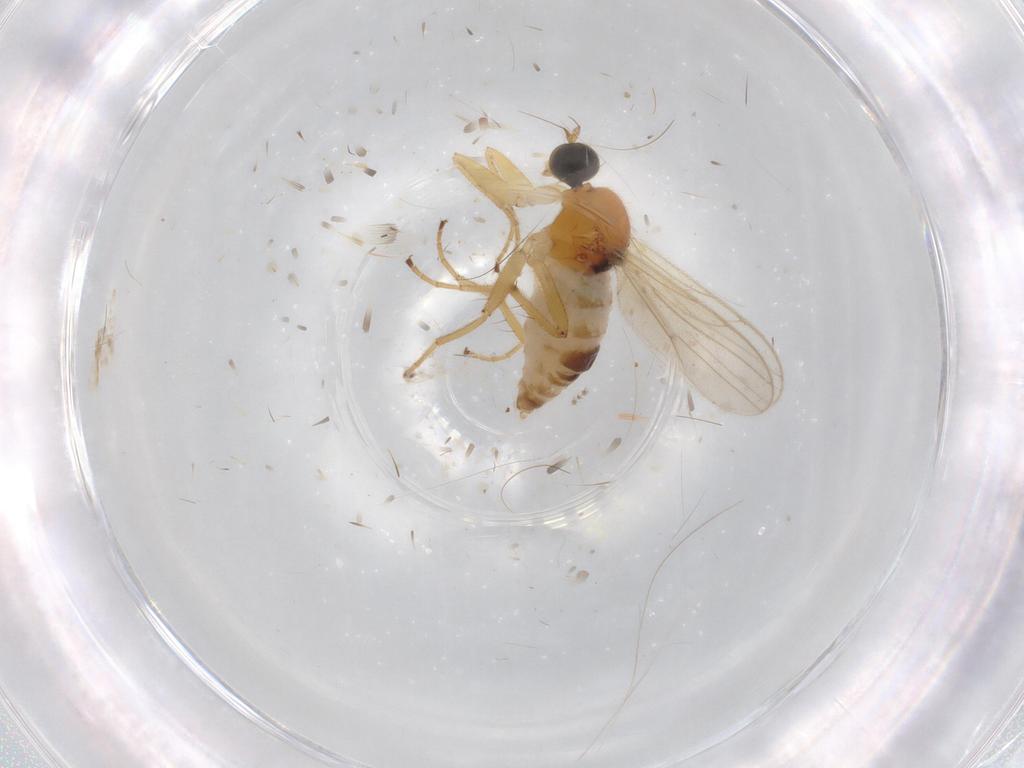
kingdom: Animalia
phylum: Arthropoda
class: Insecta
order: Diptera
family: Hybotidae
